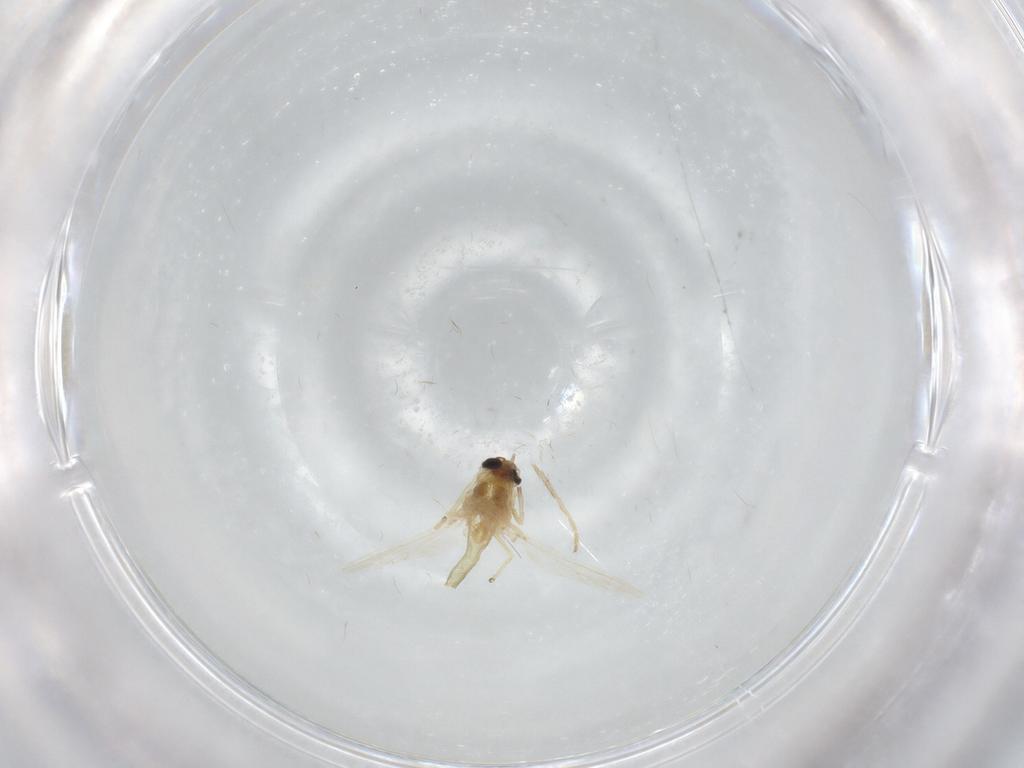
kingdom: Animalia
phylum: Arthropoda
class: Insecta
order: Diptera
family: Chironomidae
